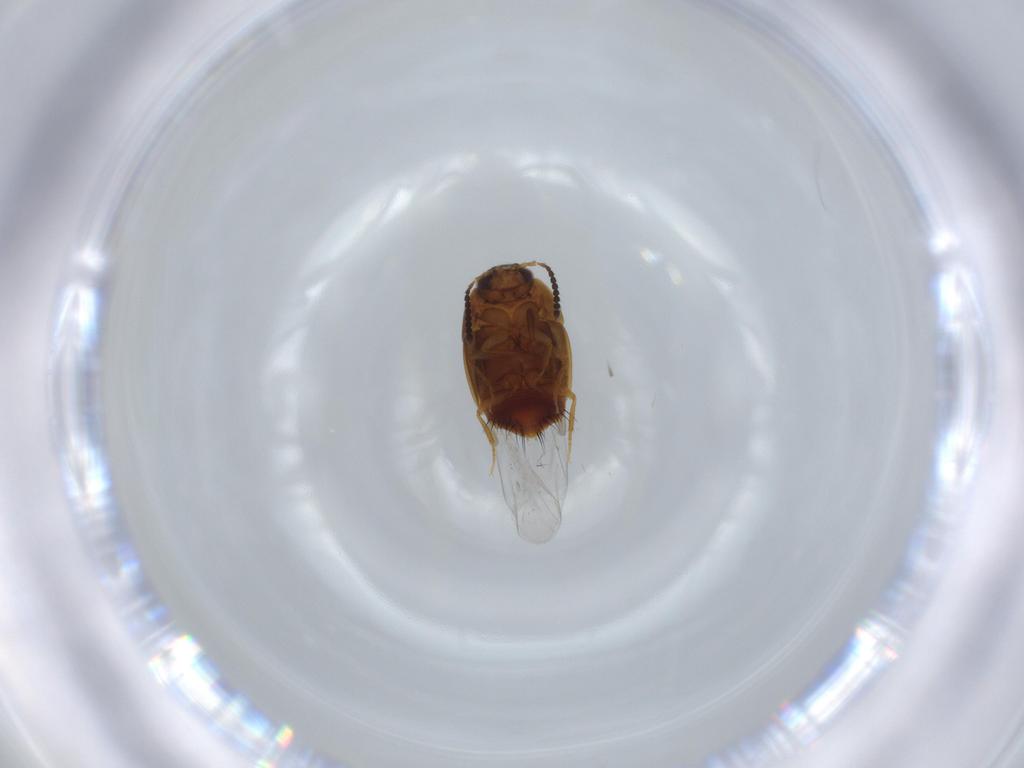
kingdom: Animalia
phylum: Arthropoda
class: Insecta
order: Coleoptera
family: Staphylinidae
